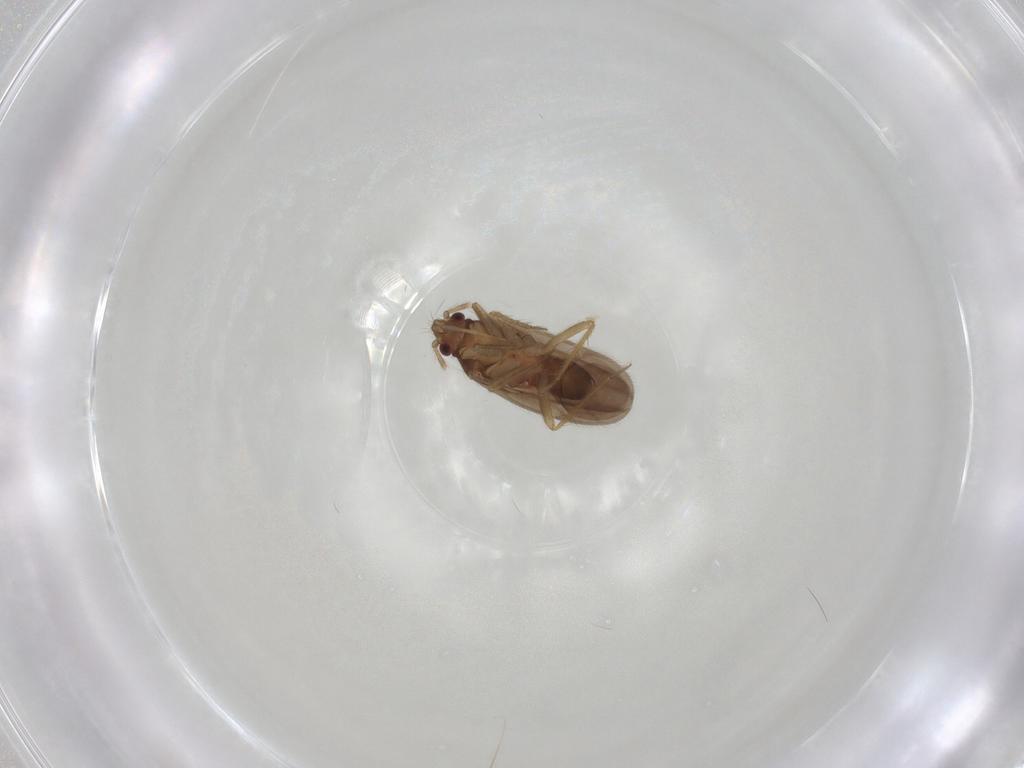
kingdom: Animalia
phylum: Arthropoda
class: Insecta
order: Hemiptera
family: Ceratocombidae
